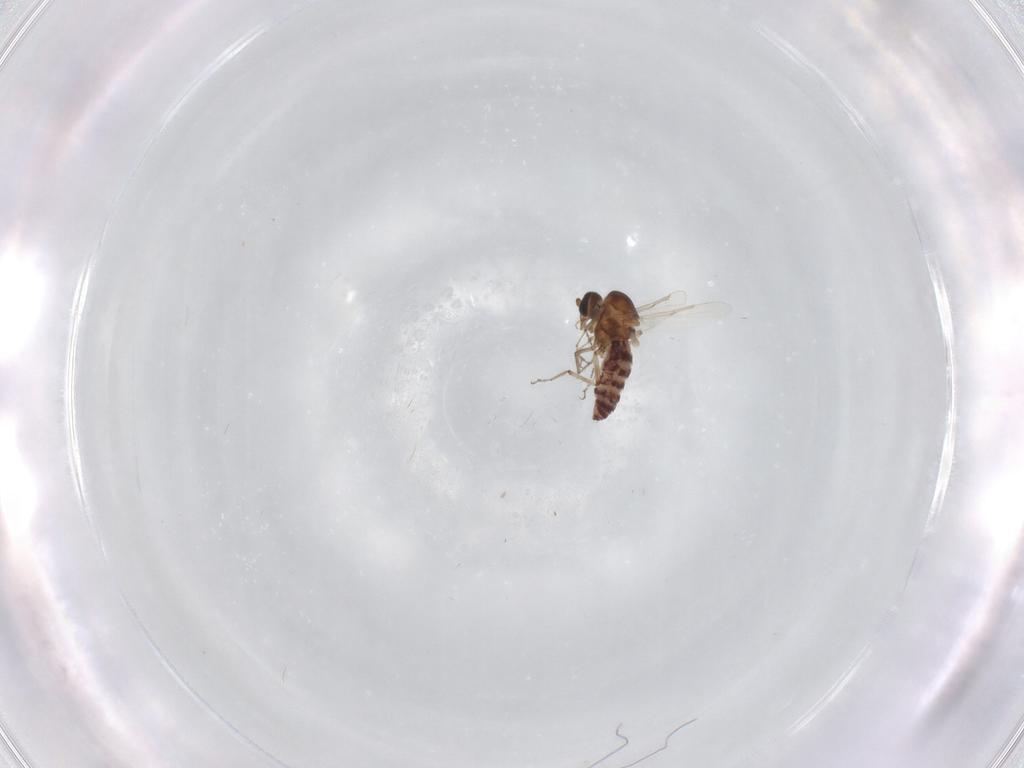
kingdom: Animalia
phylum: Arthropoda
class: Insecta
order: Diptera
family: Ceratopogonidae
